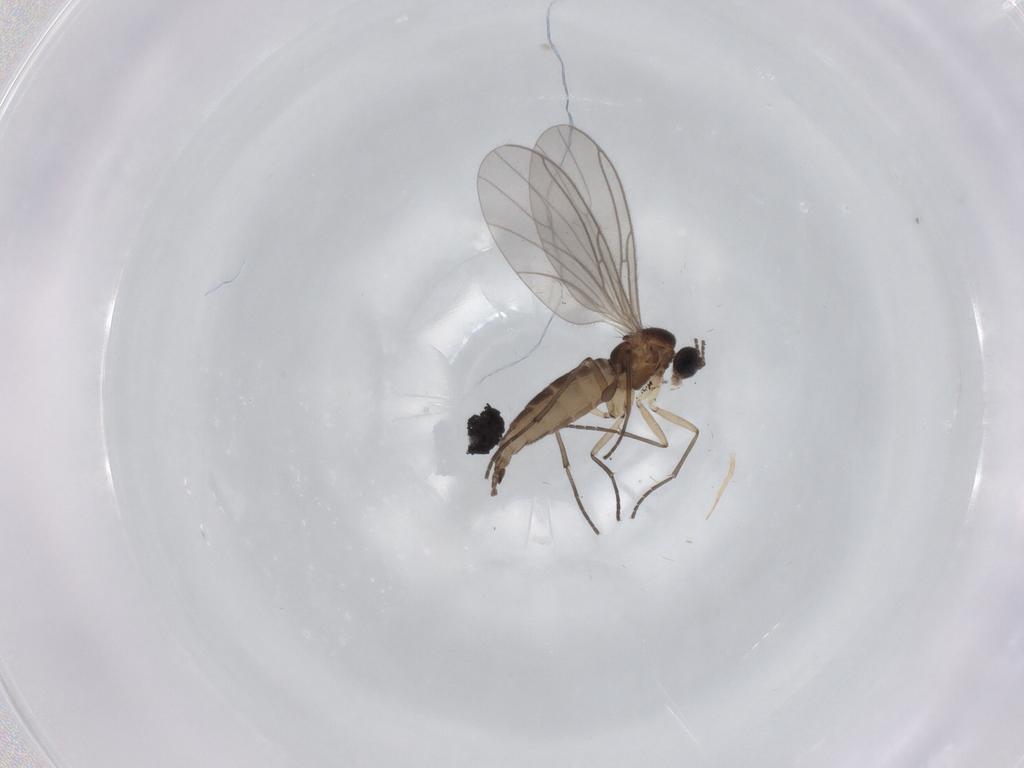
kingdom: Animalia
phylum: Arthropoda
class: Insecta
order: Diptera
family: Sciaridae
